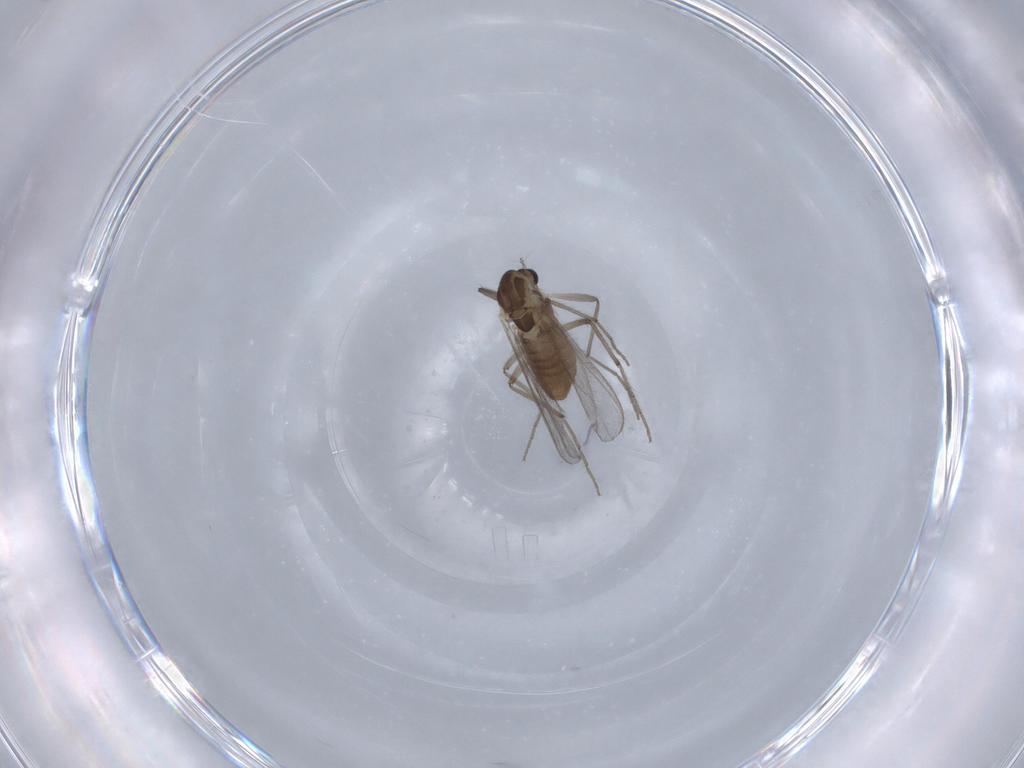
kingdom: Animalia
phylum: Arthropoda
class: Insecta
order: Diptera
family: Chironomidae
